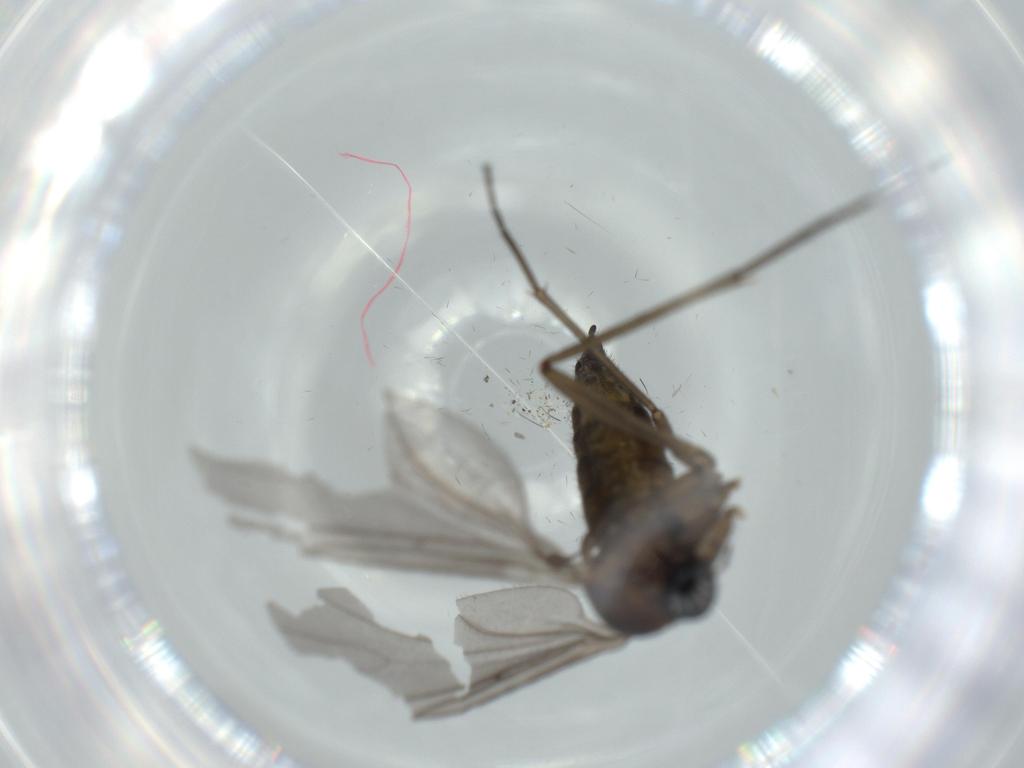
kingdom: Animalia
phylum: Arthropoda
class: Insecta
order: Diptera
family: Sciaridae
